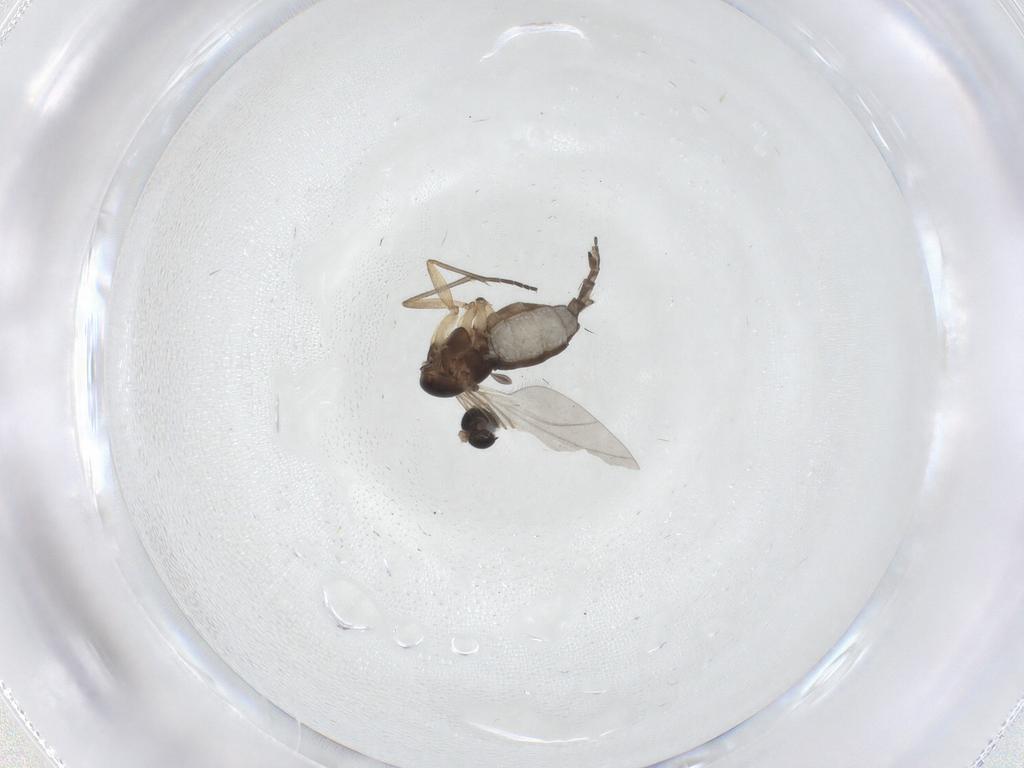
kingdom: Animalia
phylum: Arthropoda
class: Insecta
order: Diptera
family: Sciaridae
